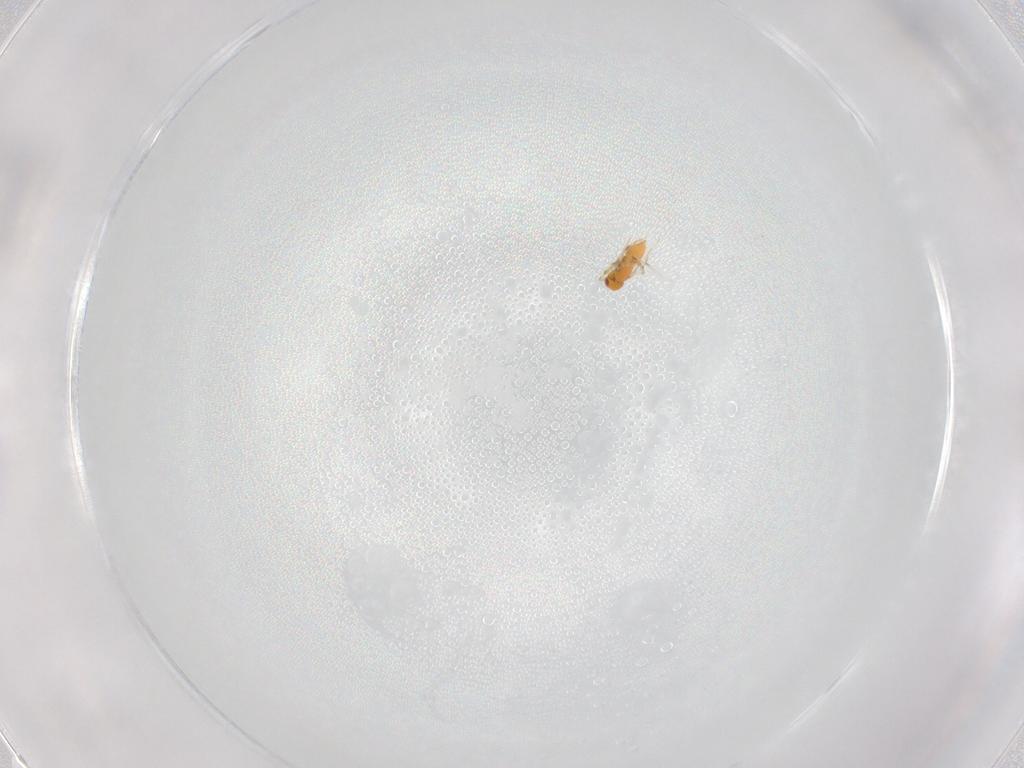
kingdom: Animalia
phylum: Arthropoda
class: Insecta
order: Hymenoptera
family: Trichogrammatidae
